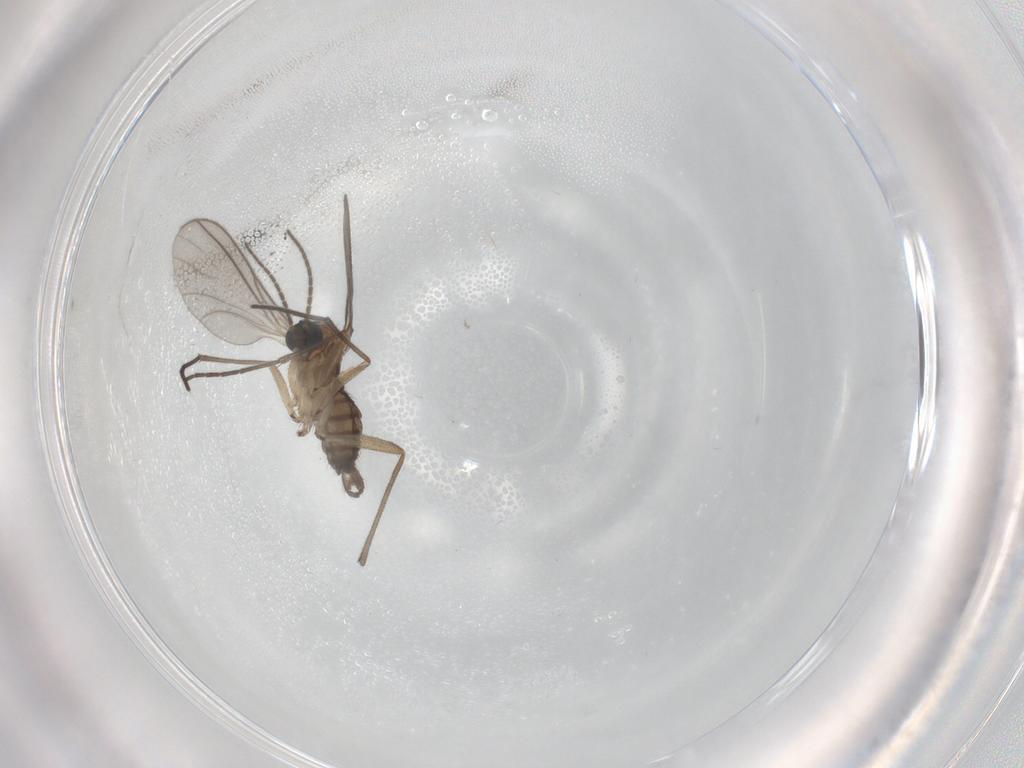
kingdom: Animalia
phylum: Arthropoda
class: Insecta
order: Diptera
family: Sciaridae
